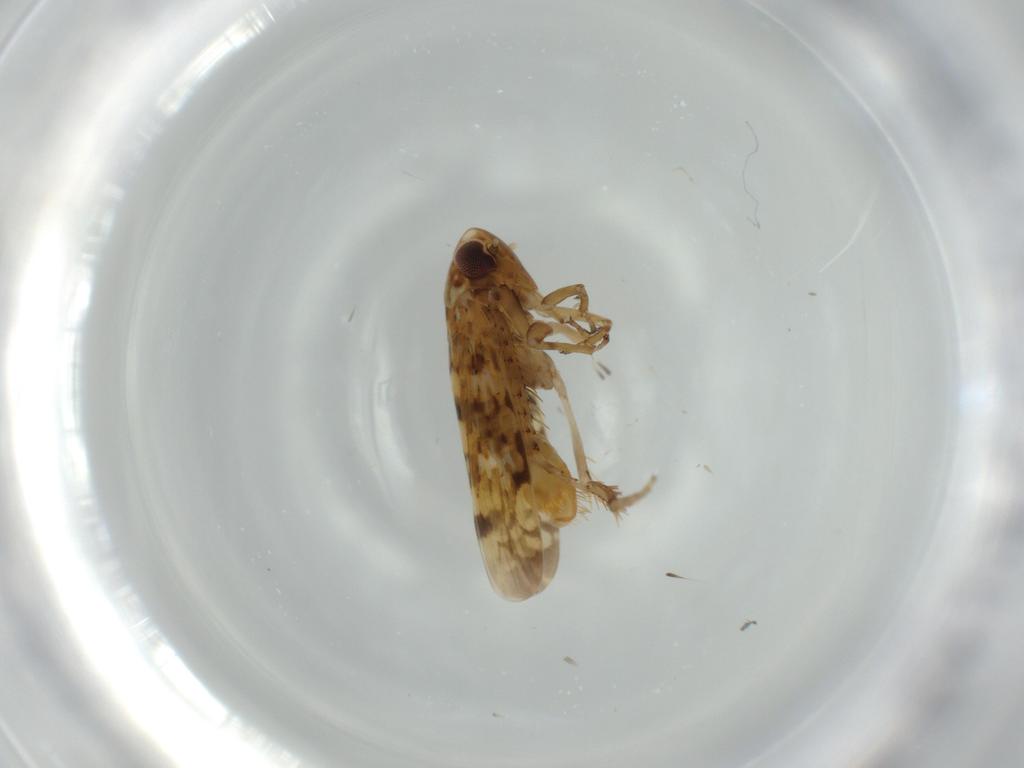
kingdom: Animalia
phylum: Arthropoda
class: Insecta
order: Hemiptera
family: Cicadellidae
